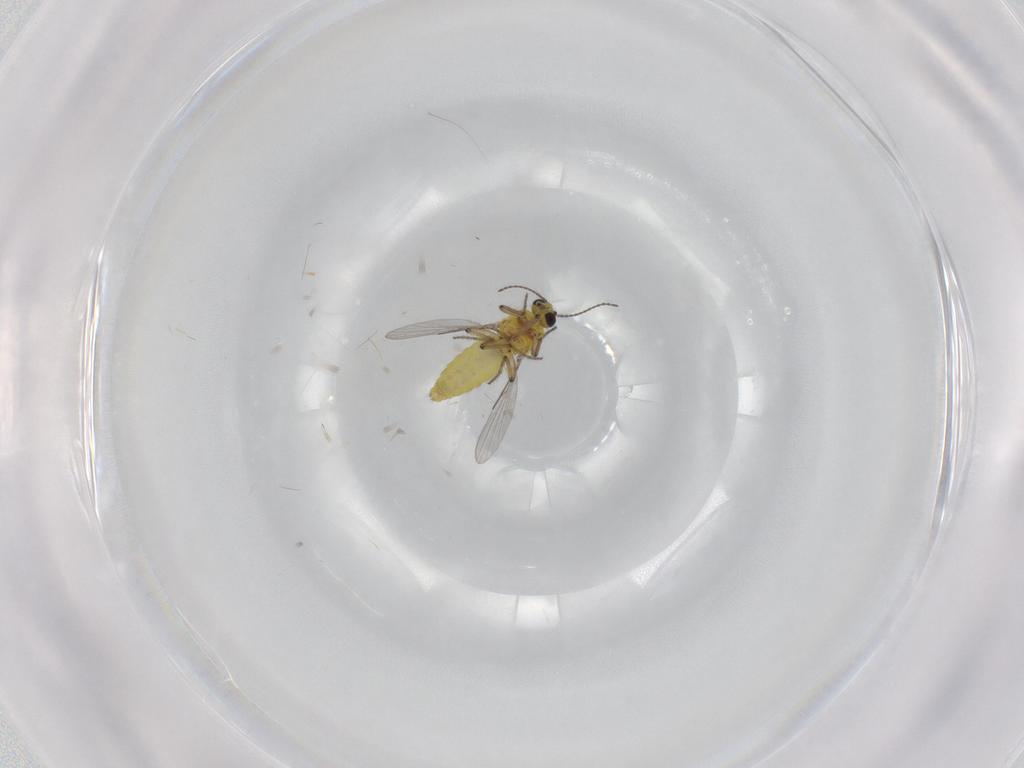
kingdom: Animalia
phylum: Arthropoda
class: Insecta
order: Diptera
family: Ceratopogonidae
